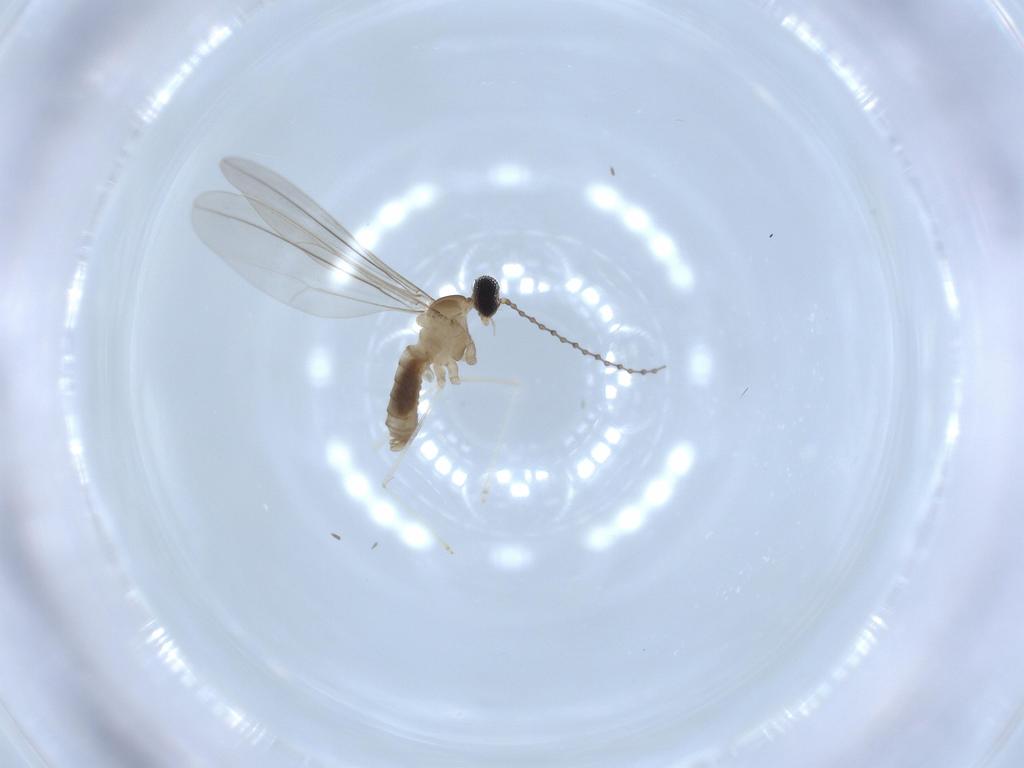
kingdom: Animalia
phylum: Arthropoda
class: Insecta
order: Diptera
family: Cecidomyiidae
